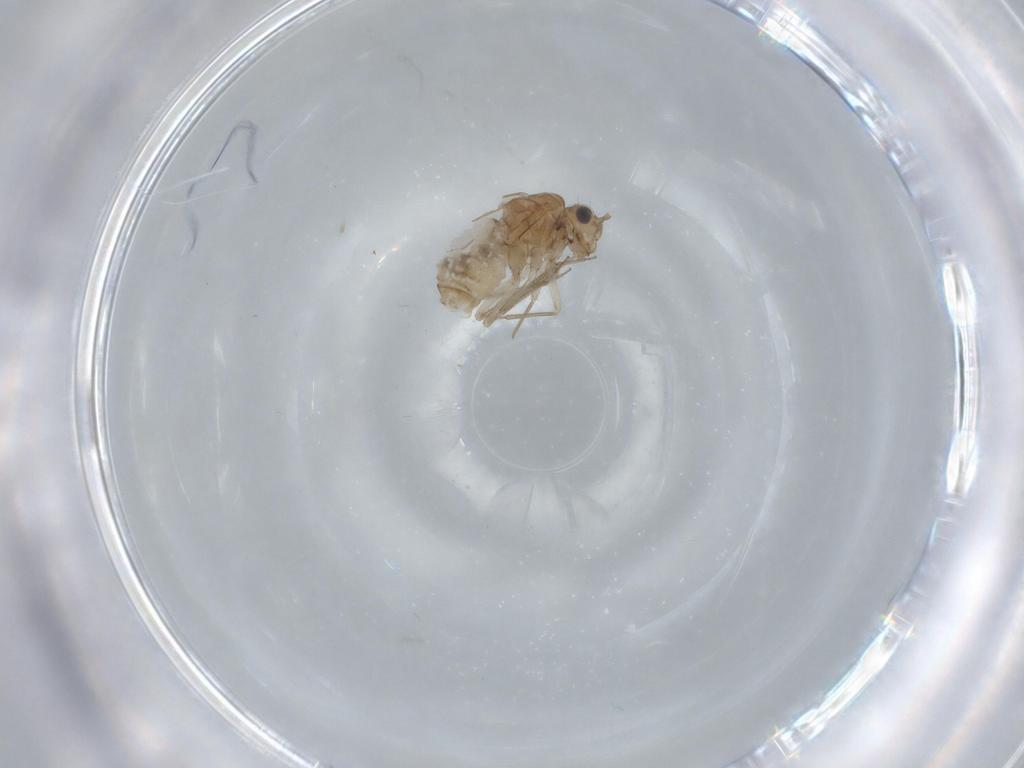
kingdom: Animalia
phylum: Arthropoda
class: Insecta
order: Psocodea
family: Lachesillidae
